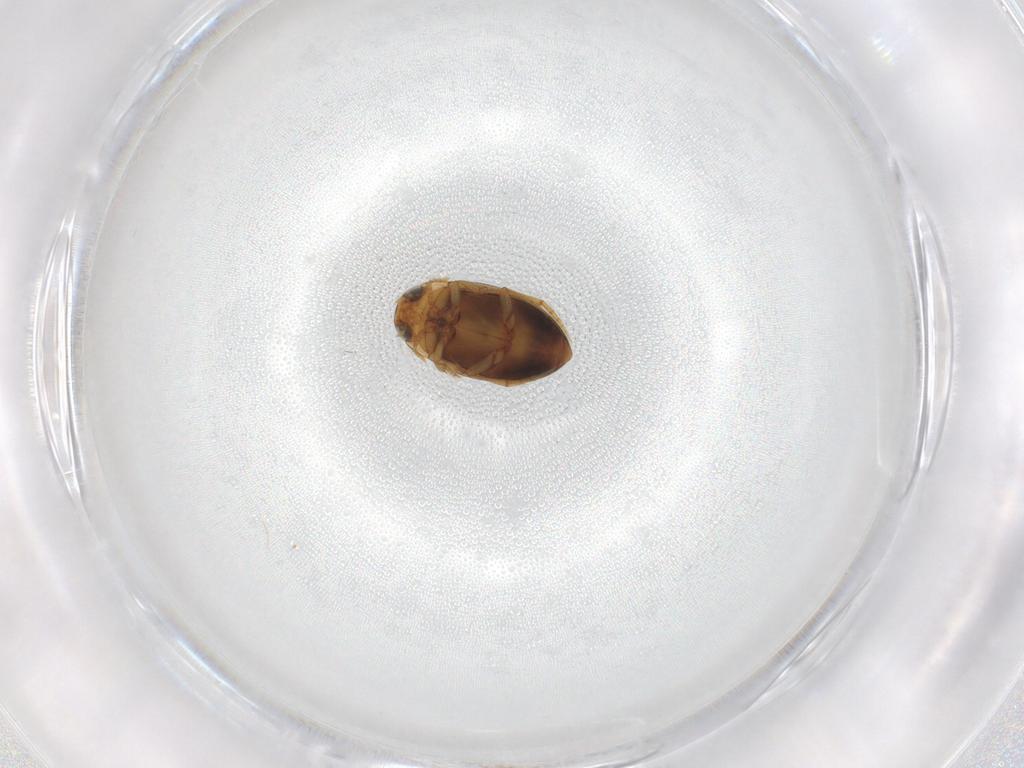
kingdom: Animalia
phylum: Arthropoda
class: Insecta
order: Coleoptera
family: Dytiscidae
